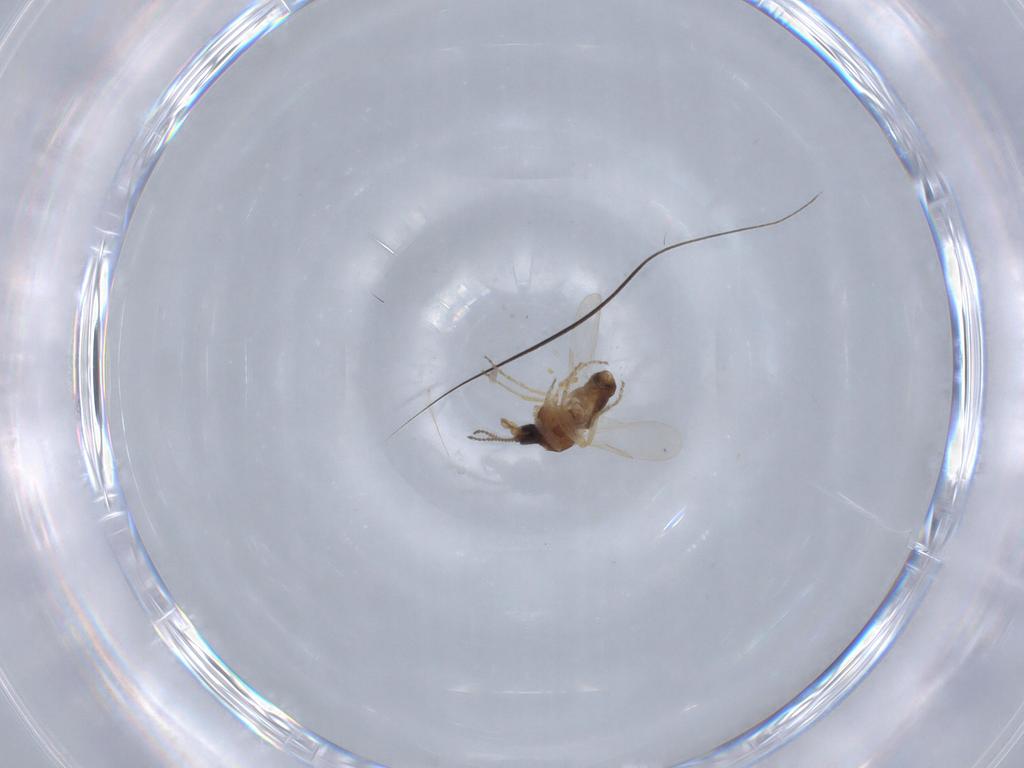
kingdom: Animalia
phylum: Arthropoda
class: Insecta
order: Diptera
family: Ceratopogonidae
